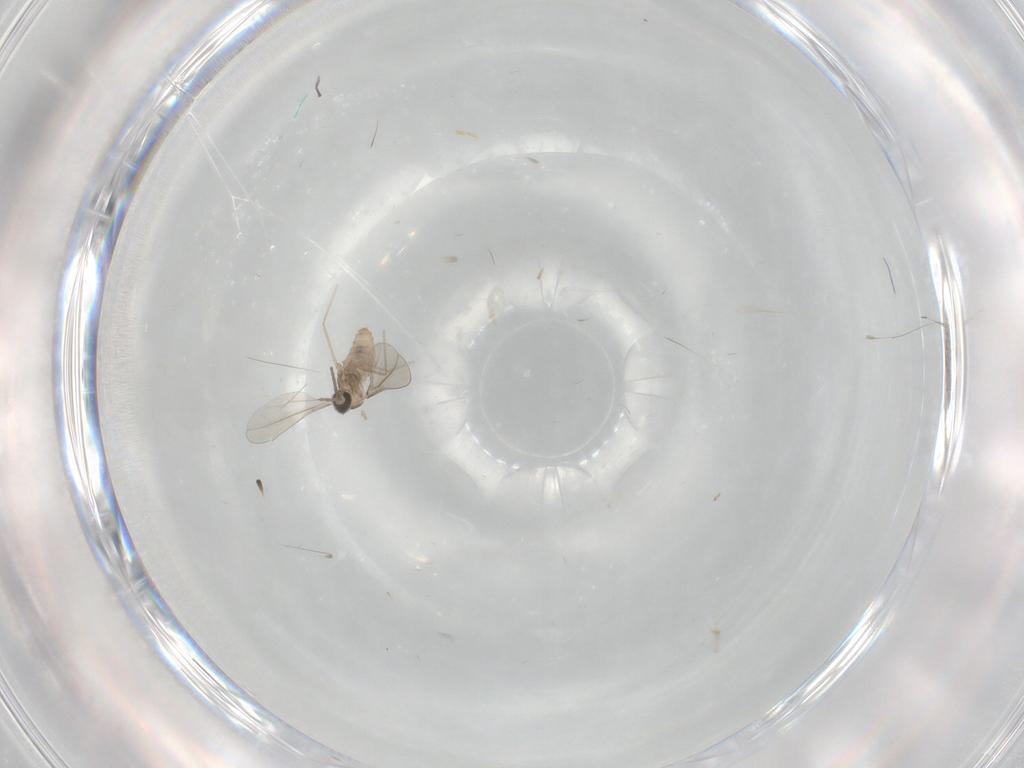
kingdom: Animalia
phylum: Arthropoda
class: Insecta
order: Diptera
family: Cecidomyiidae
